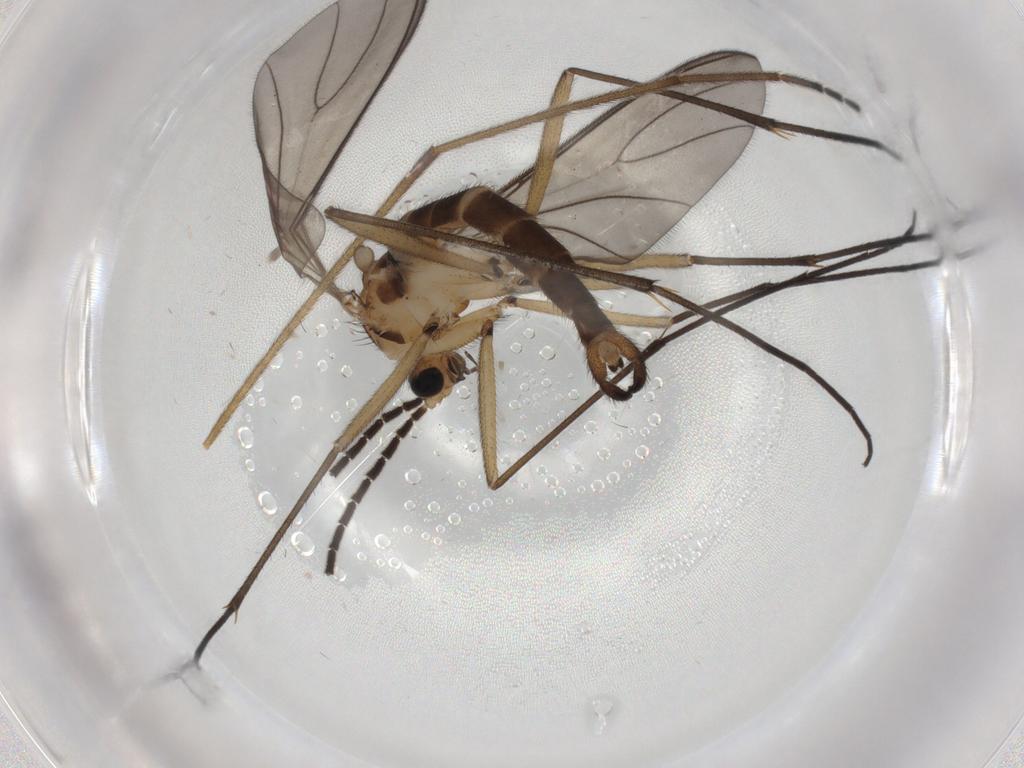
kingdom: Animalia
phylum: Arthropoda
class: Insecta
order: Diptera
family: Sciaridae
